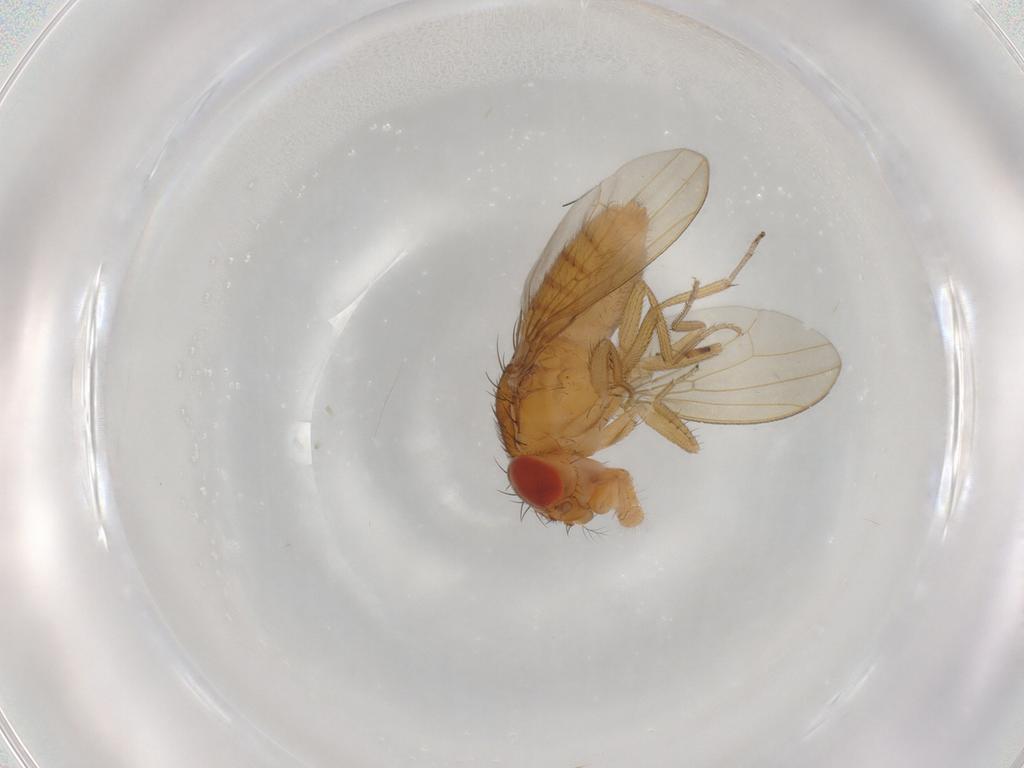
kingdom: Animalia
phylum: Arthropoda
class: Insecta
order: Diptera
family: Drosophilidae
